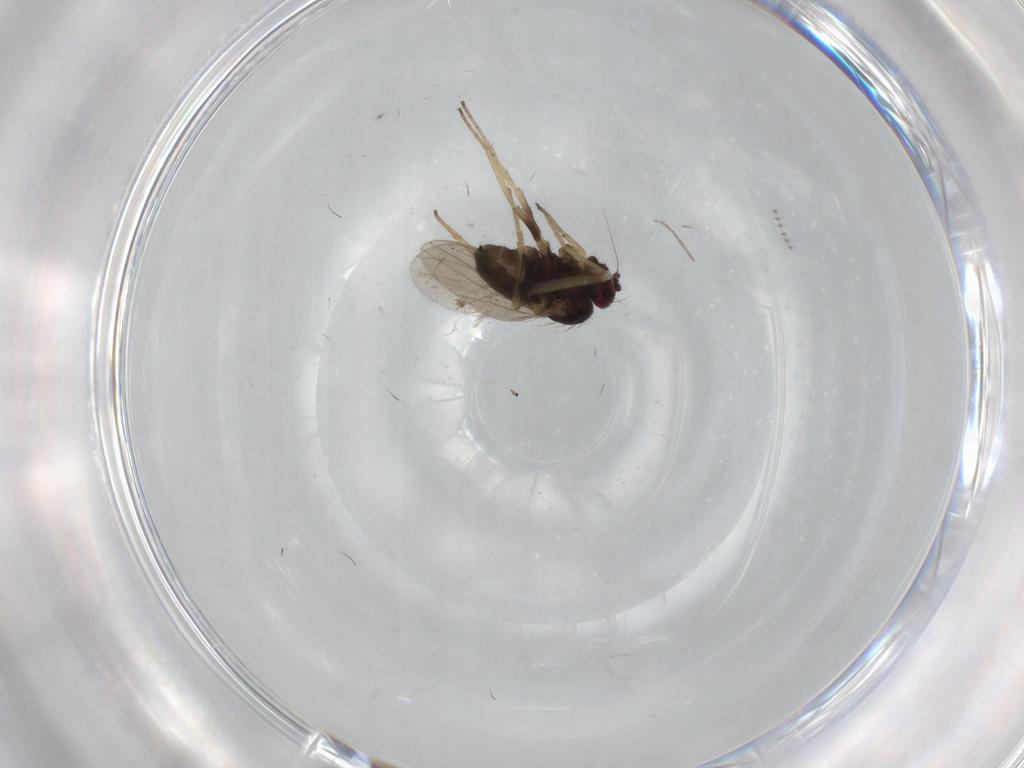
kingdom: Animalia
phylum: Arthropoda
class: Insecta
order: Diptera
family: Dolichopodidae
